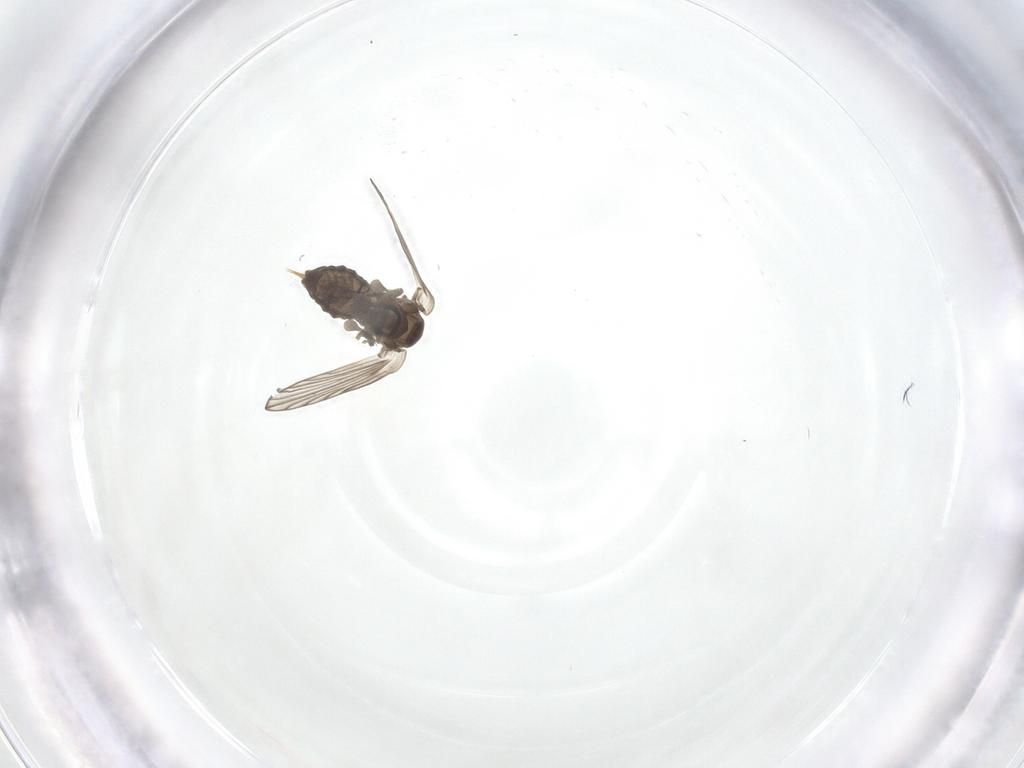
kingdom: Animalia
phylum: Arthropoda
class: Insecta
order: Diptera
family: Psychodidae
